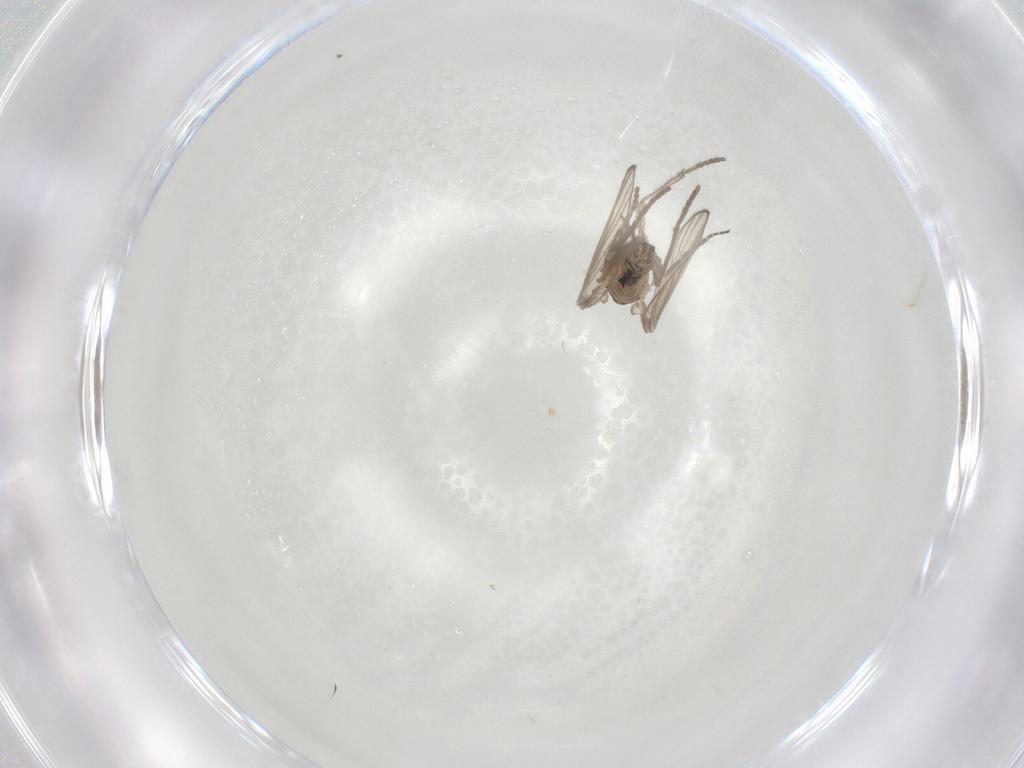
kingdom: Animalia
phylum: Arthropoda
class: Insecta
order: Diptera
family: Psychodidae
